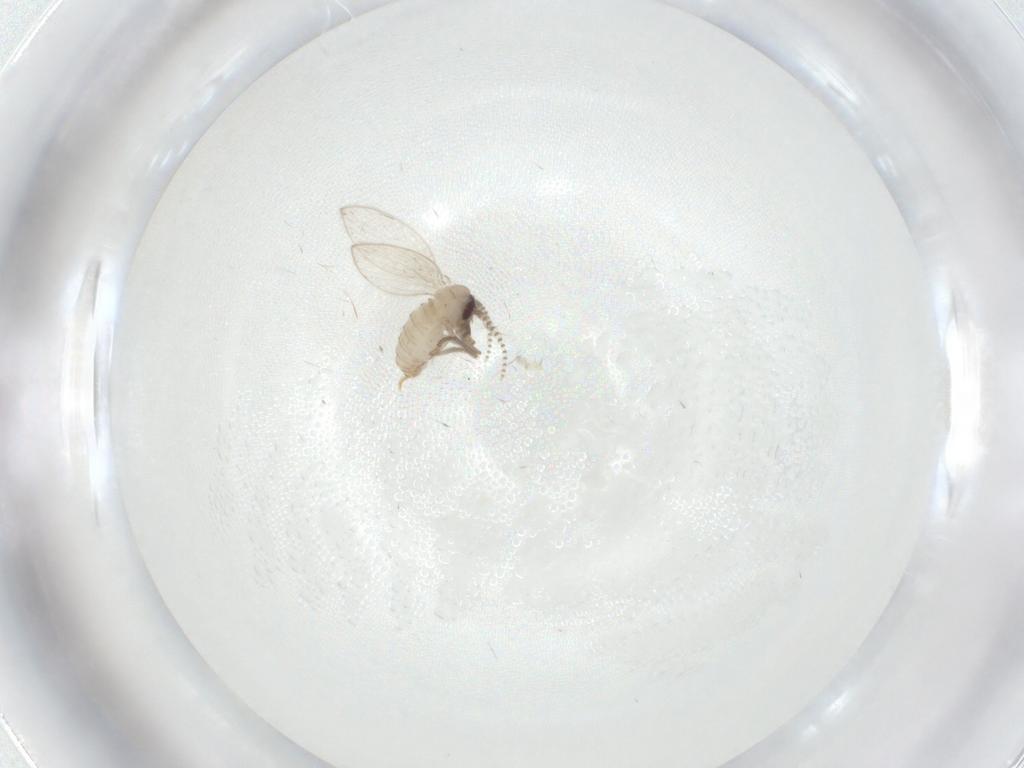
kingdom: Animalia
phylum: Arthropoda
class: Insecta
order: Diptera
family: Psychodidae
